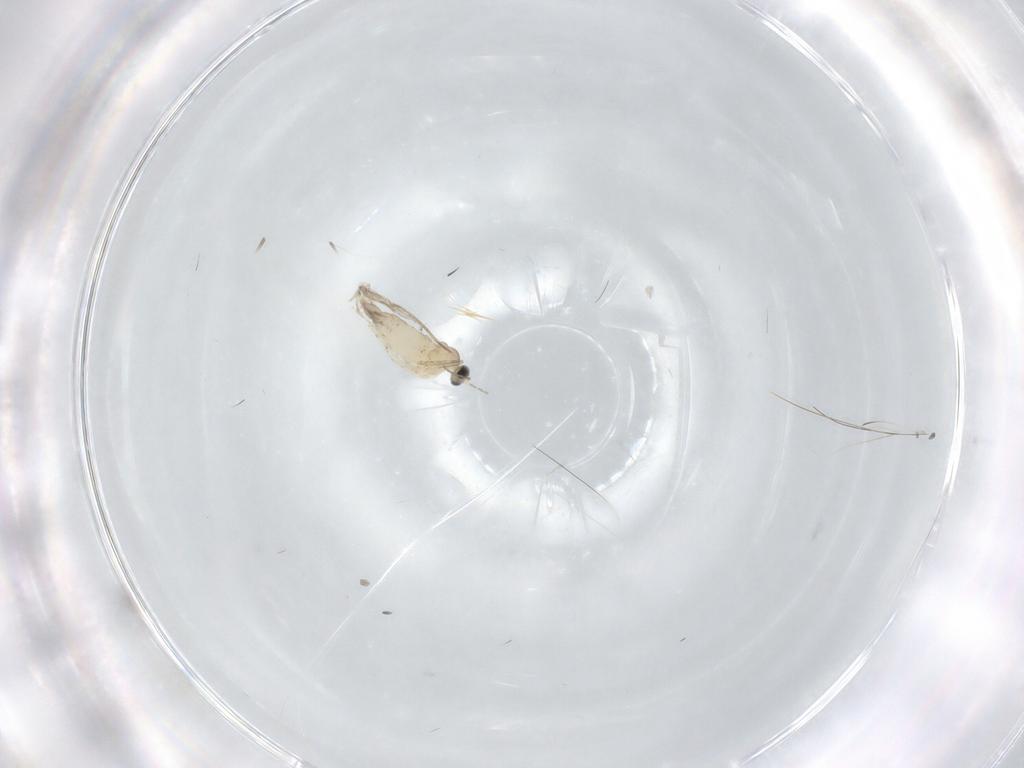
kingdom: Animalia
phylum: Arthropoda
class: Insecta
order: Diptera
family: Cecidomyiidae
